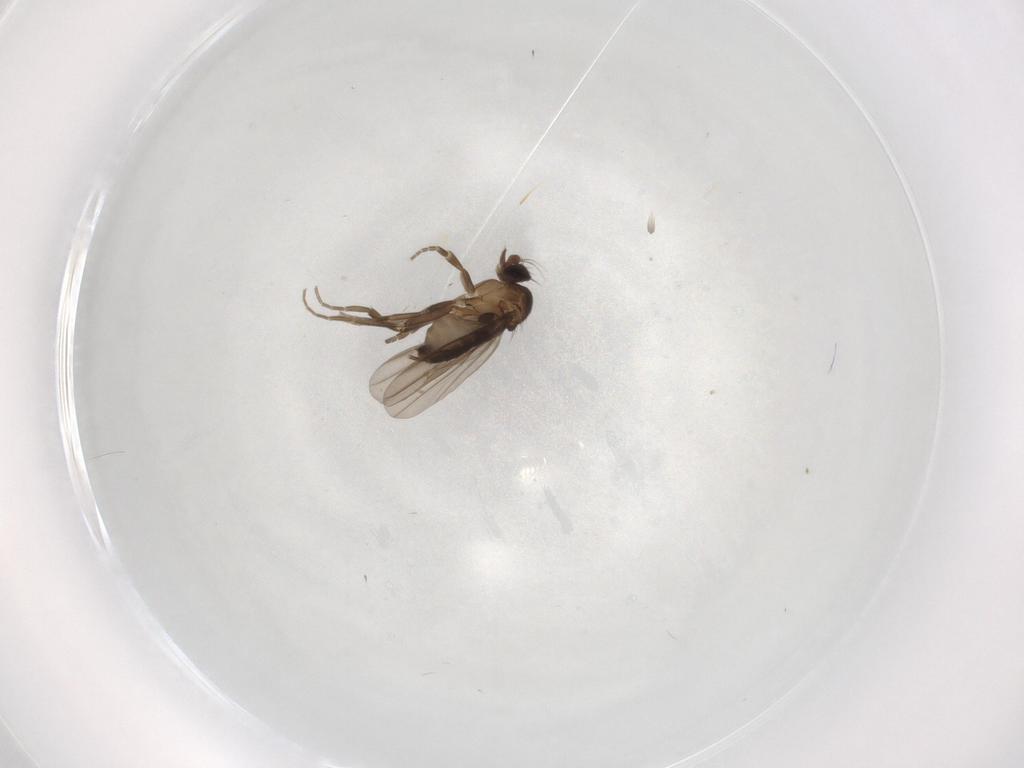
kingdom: Animalia
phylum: Arthropoda
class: Insecta
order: Diptera
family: Phoridae
